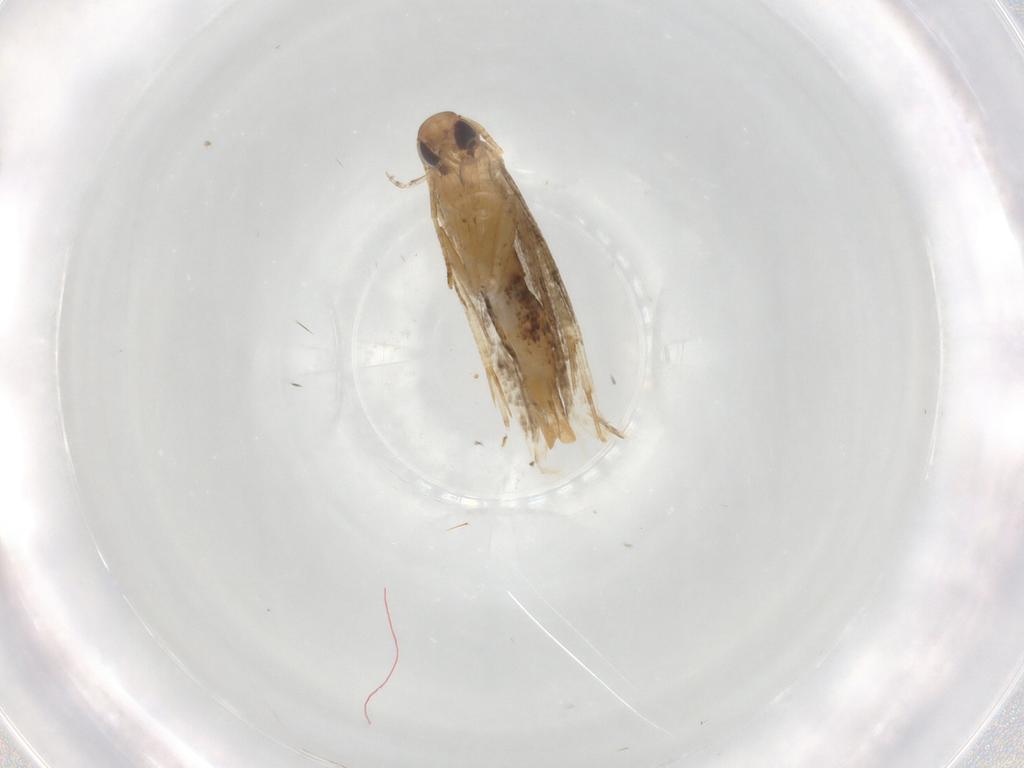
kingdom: Animalia
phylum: Arthropoda
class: Insecta
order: Lepidoptera
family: Crambidae
